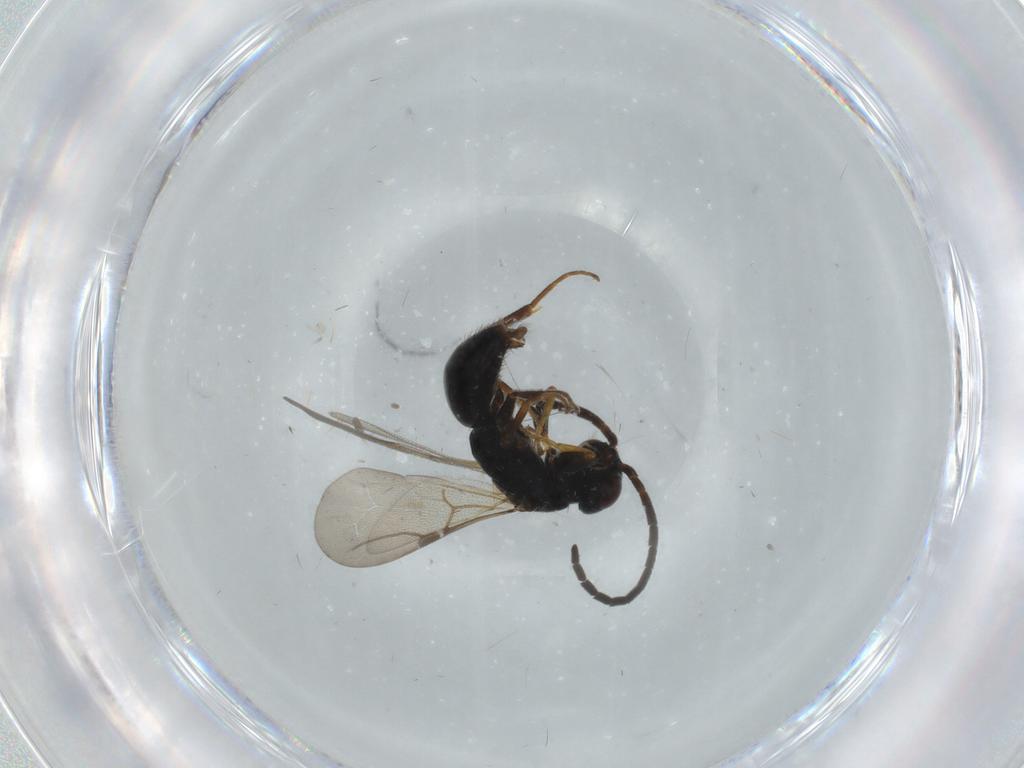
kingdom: Animalia
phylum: Arthropoda
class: Insecta
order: Hymenoptera
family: Bethylidae
